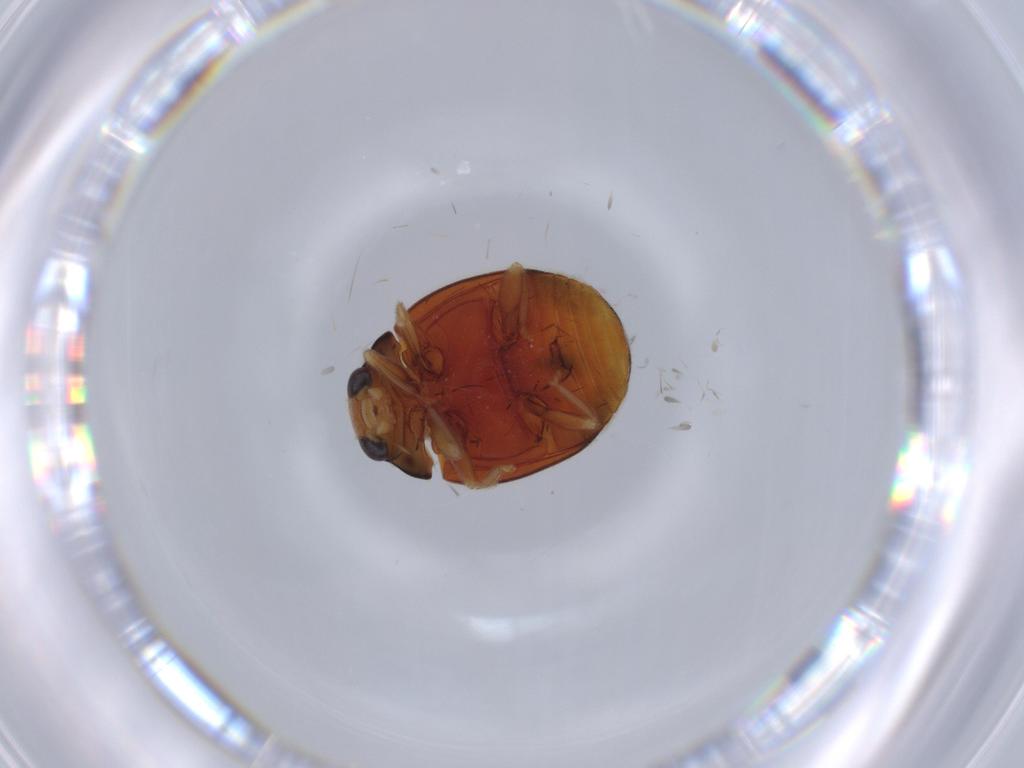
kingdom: Animalia
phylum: Arthropoda
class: Insecta
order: Coleoptera
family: Coccinellidae
